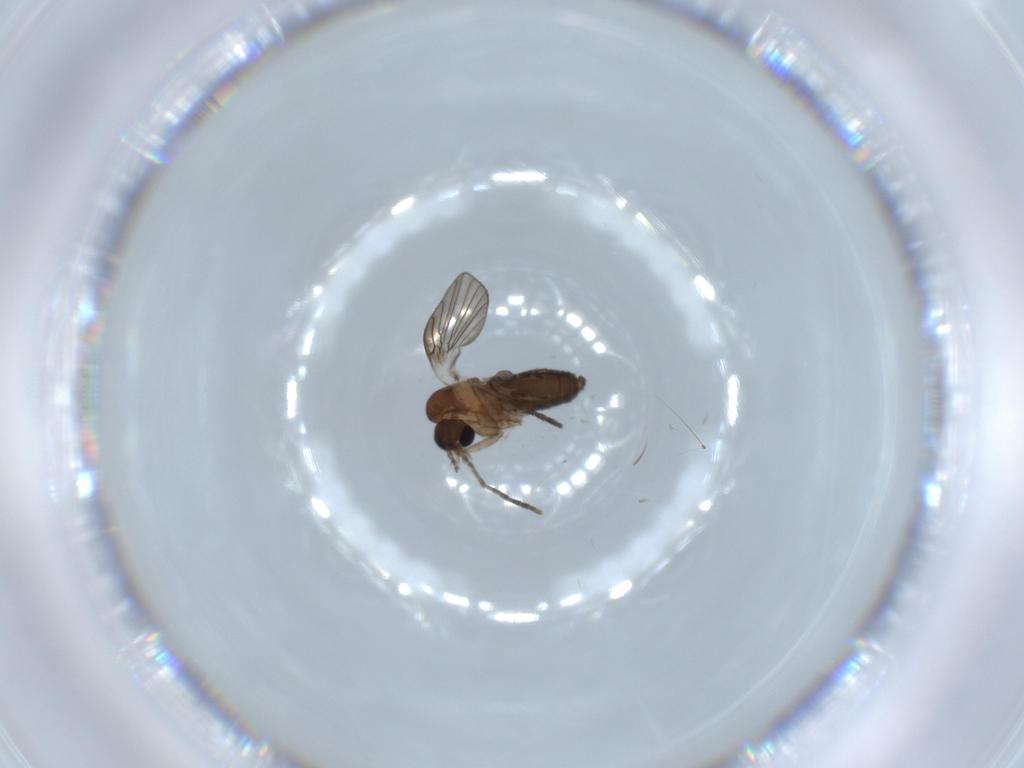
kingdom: Animalia
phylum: Arthropoda
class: Insecta
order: Diptera
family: Psychodidae
